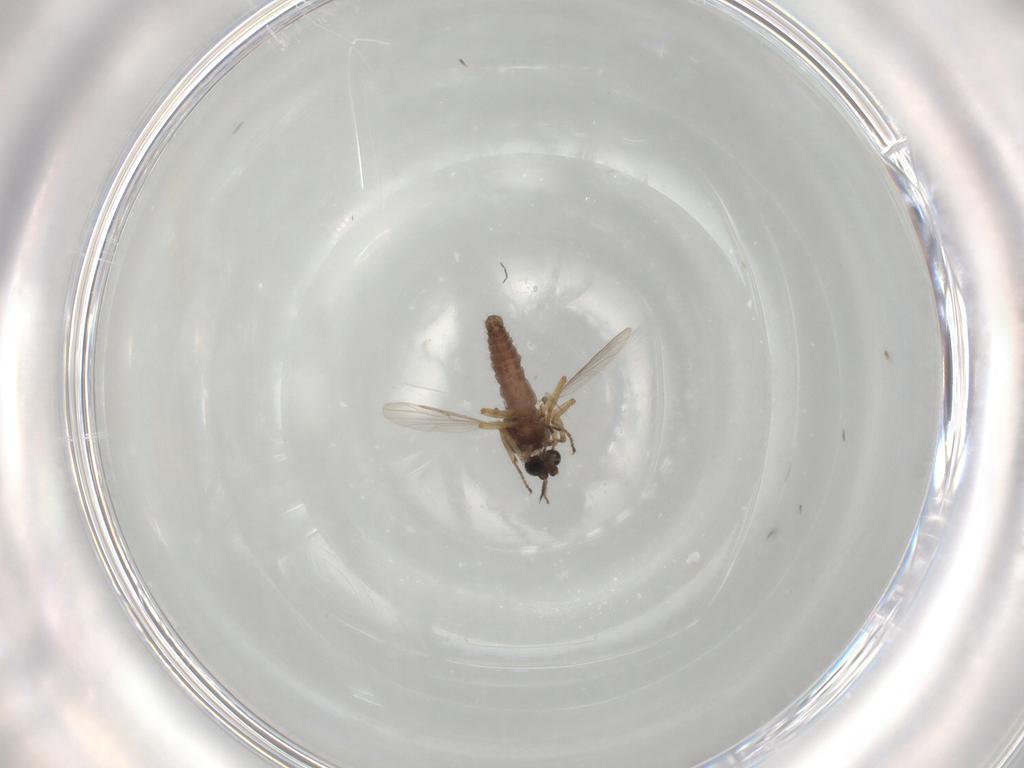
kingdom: Animalia
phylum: Arthropoda
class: Insecta
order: Diptera
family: Ceratopogonidae
